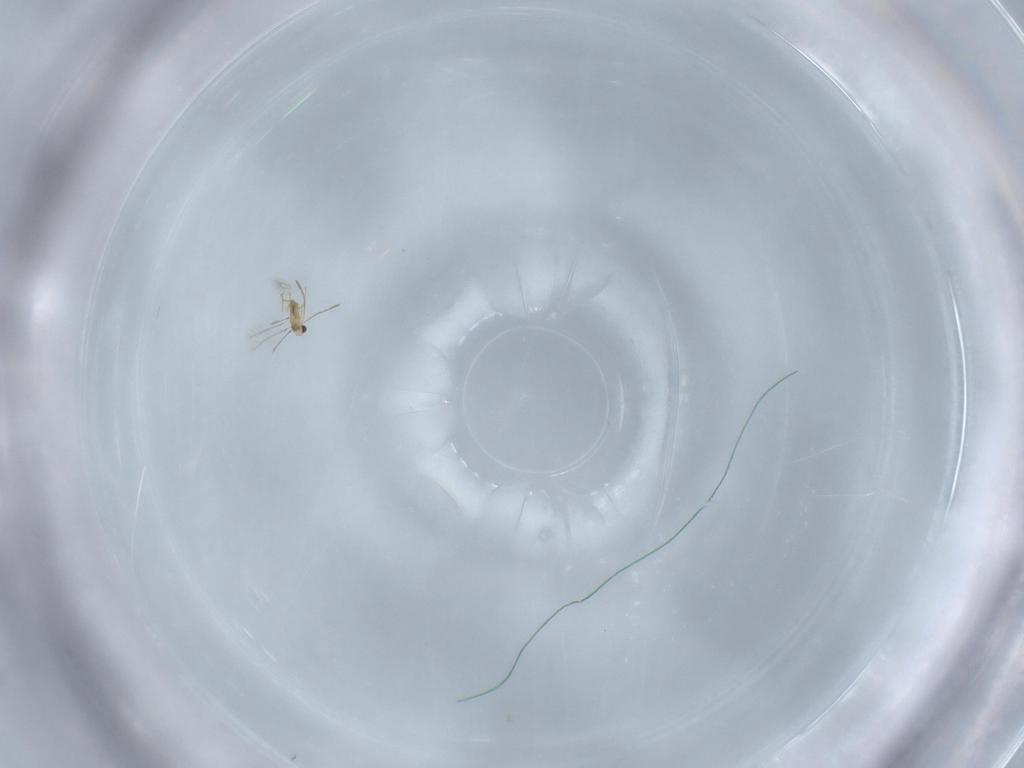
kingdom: Animalia
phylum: Arthropoda
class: Insecta
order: Hymenoptera
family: Mymaridae
